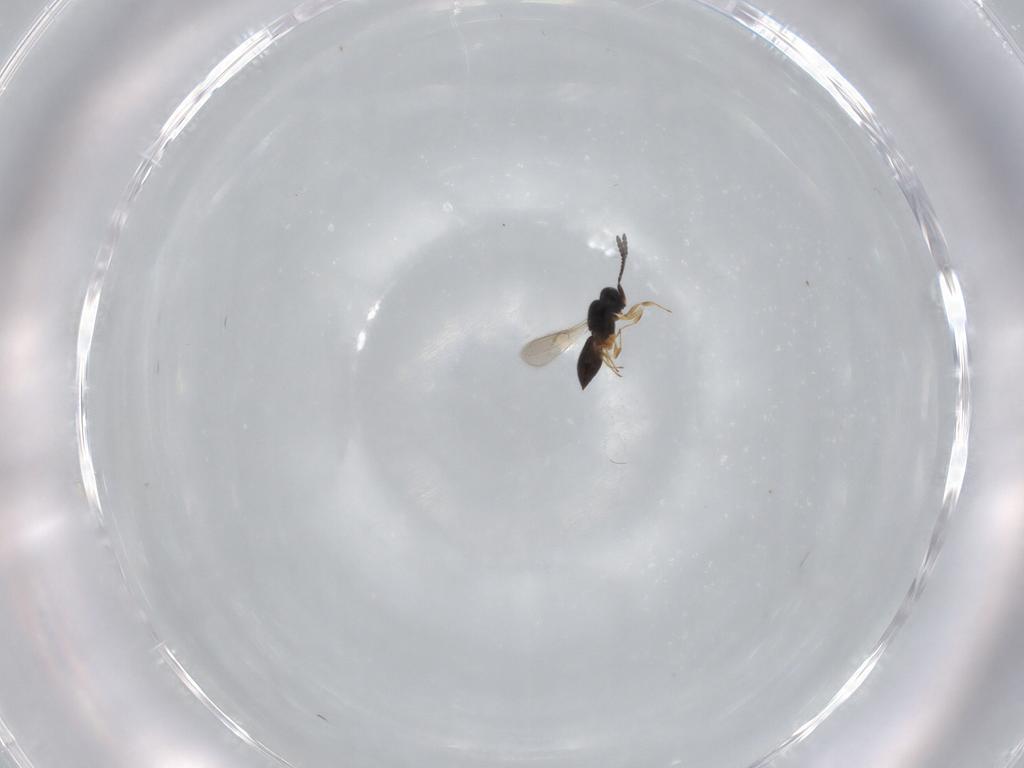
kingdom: Animalia
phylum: Arthropoda
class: Insecta
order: Hymenoptera
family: Scelionidae
